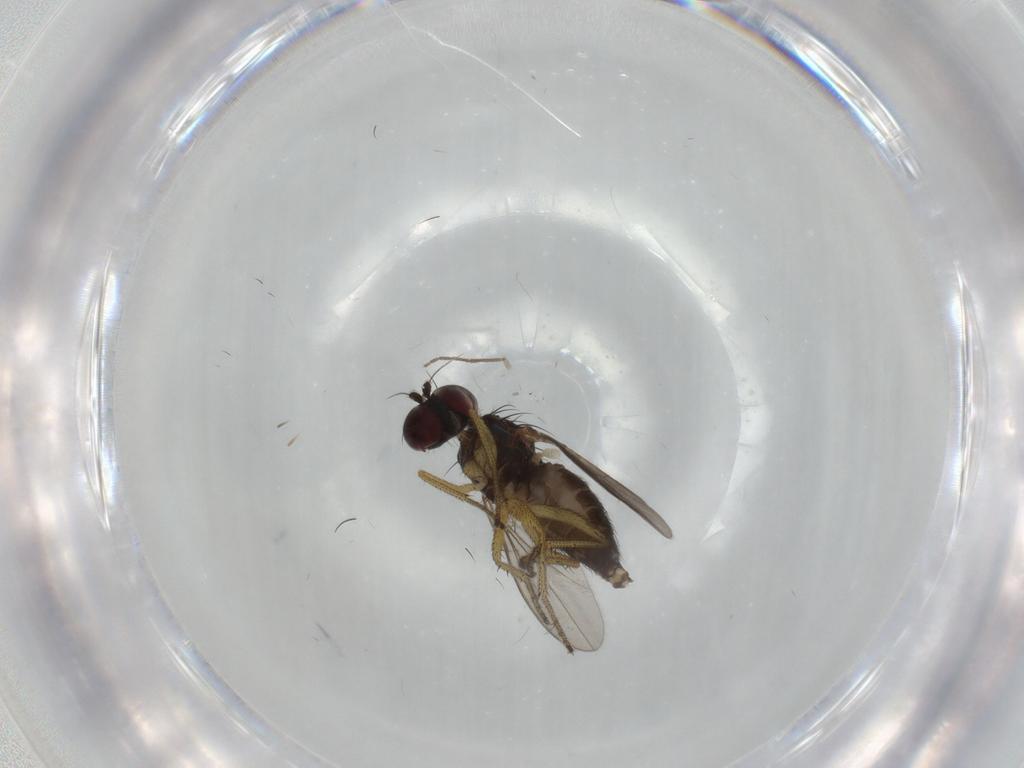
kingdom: Animalia
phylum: Arthropoda
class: Insecta
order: Diptera
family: Dolichopodidae
